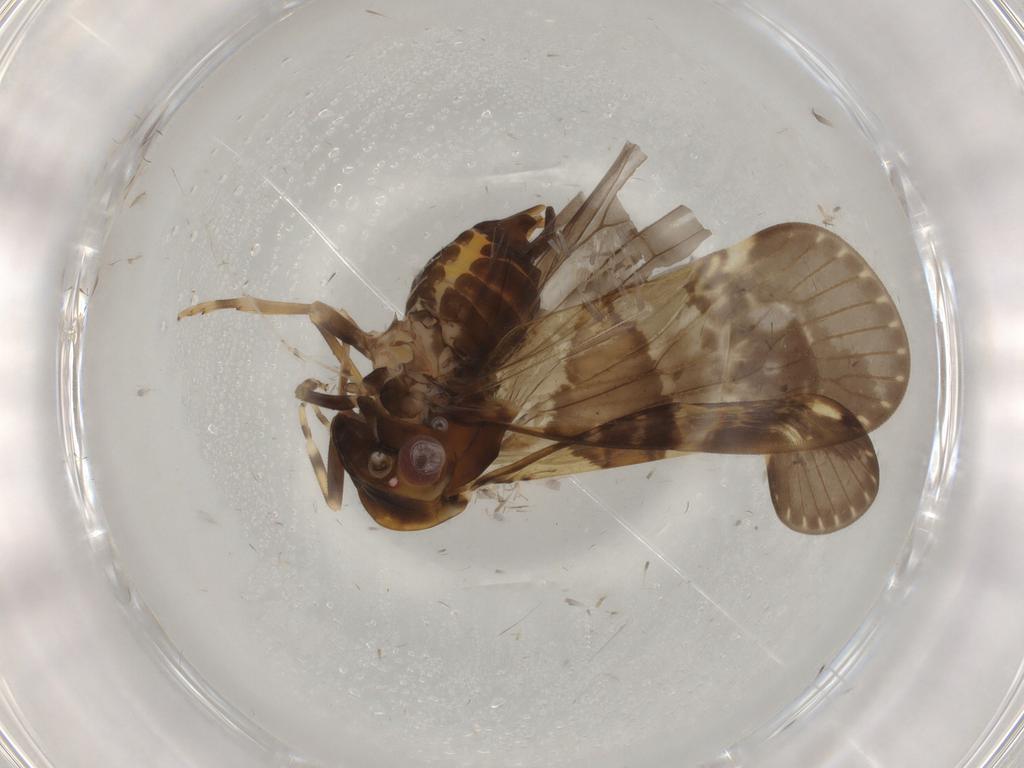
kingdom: Animalia
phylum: Arthropoda
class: Insecta
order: Hemiptera
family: Cixiidae
